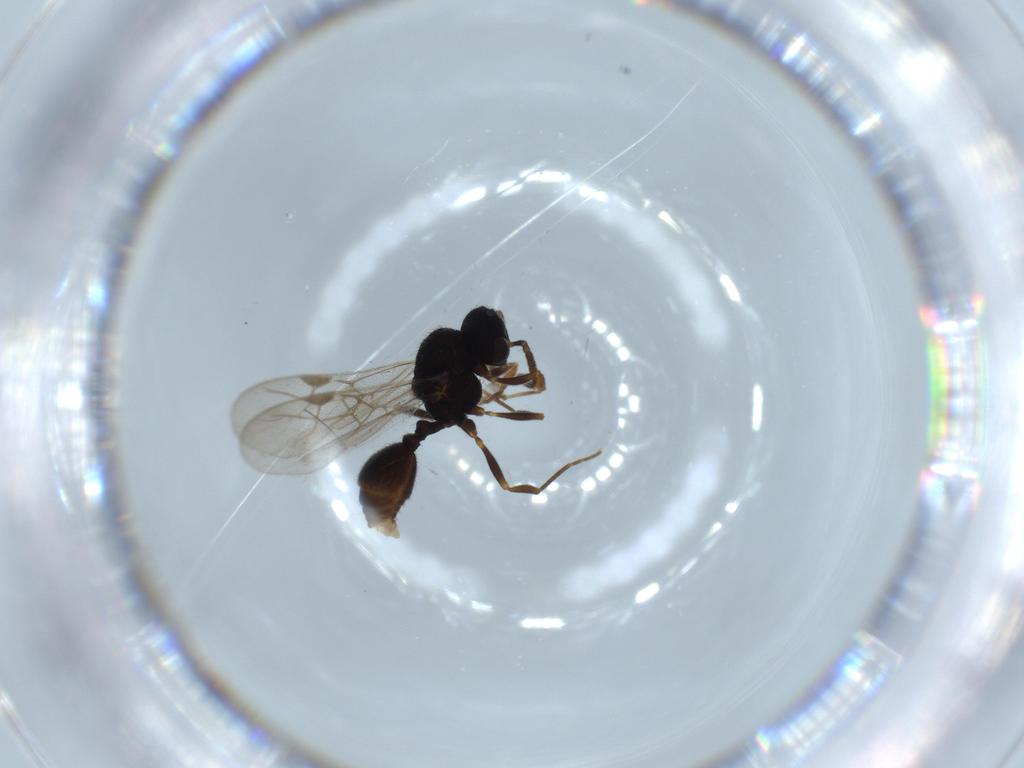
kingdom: Animalia
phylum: Arthropoda
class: Insecta
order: Hymenoptera
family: Formicidae
